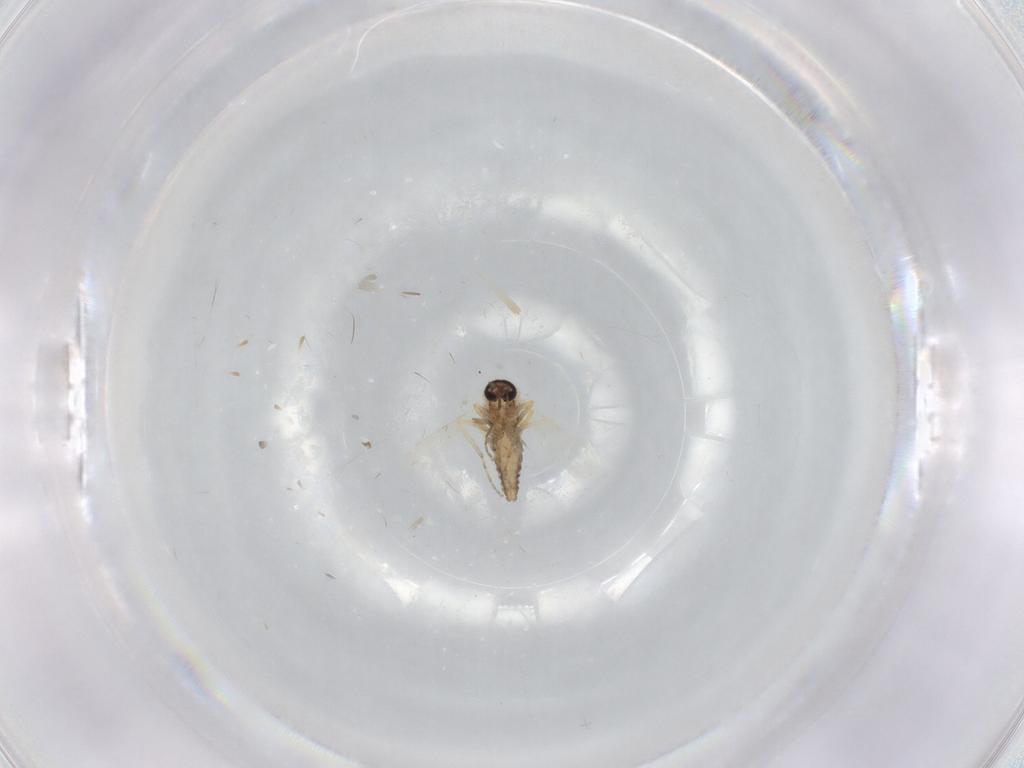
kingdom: Animalia
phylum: Arthropoda
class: Insecta
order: Diptera
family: Ceratopogonidae
